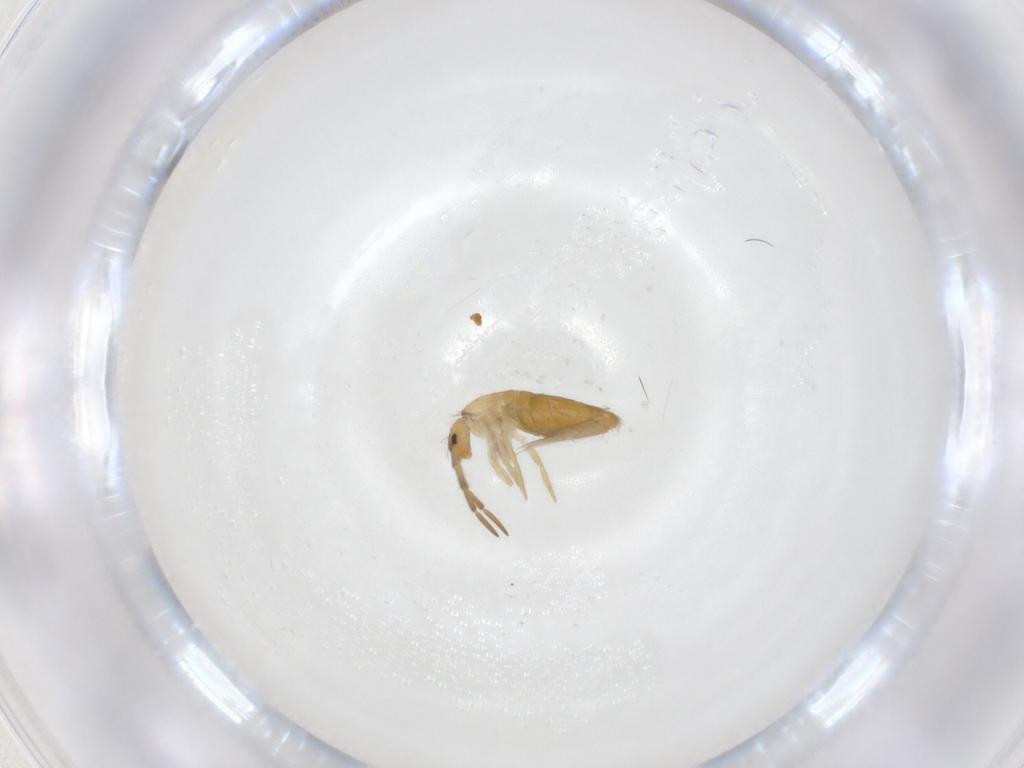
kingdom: Animalia
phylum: Arthropoda
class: Collembola
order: Entomobryomorpha
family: Entomobryidae
